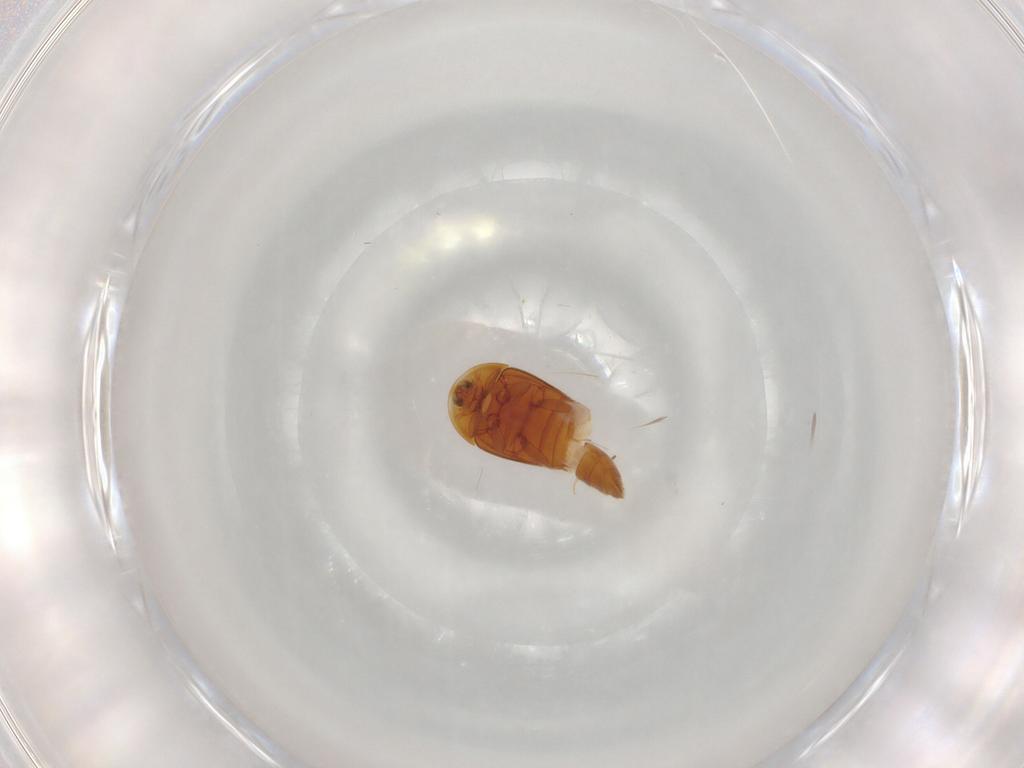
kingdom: Animalia
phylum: Arthropoda
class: Insecta
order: Coleoptera
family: Corylophidae
